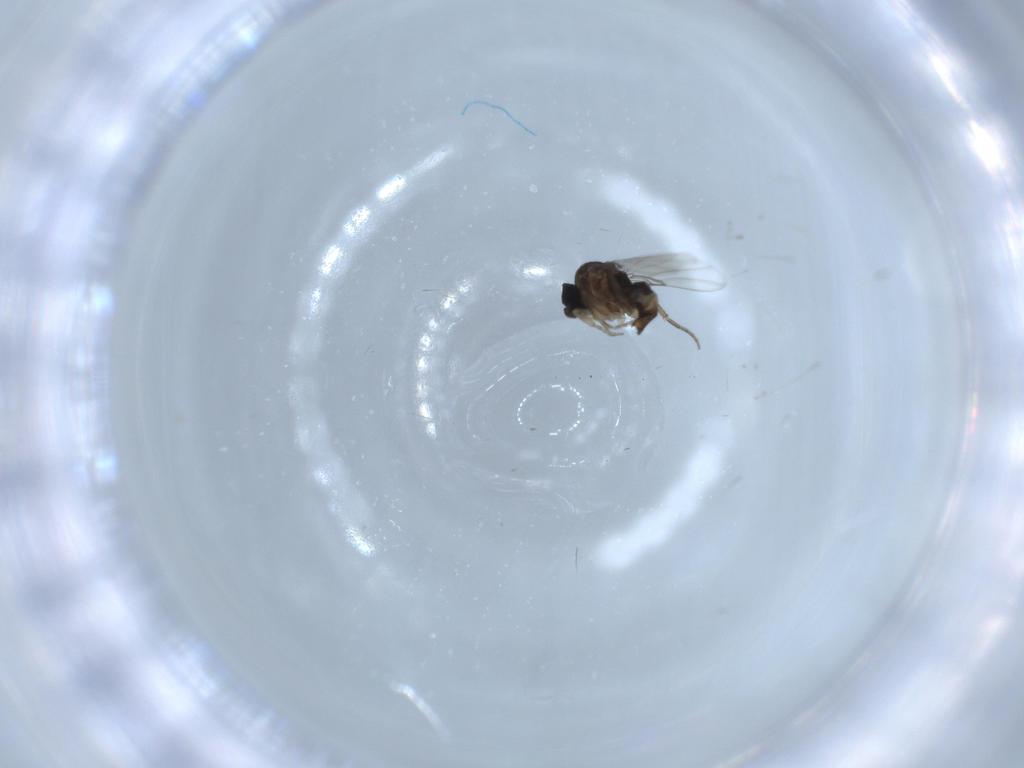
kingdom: Animalia
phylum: Arthropoda
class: Insecta
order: Diptera
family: Phoridae
